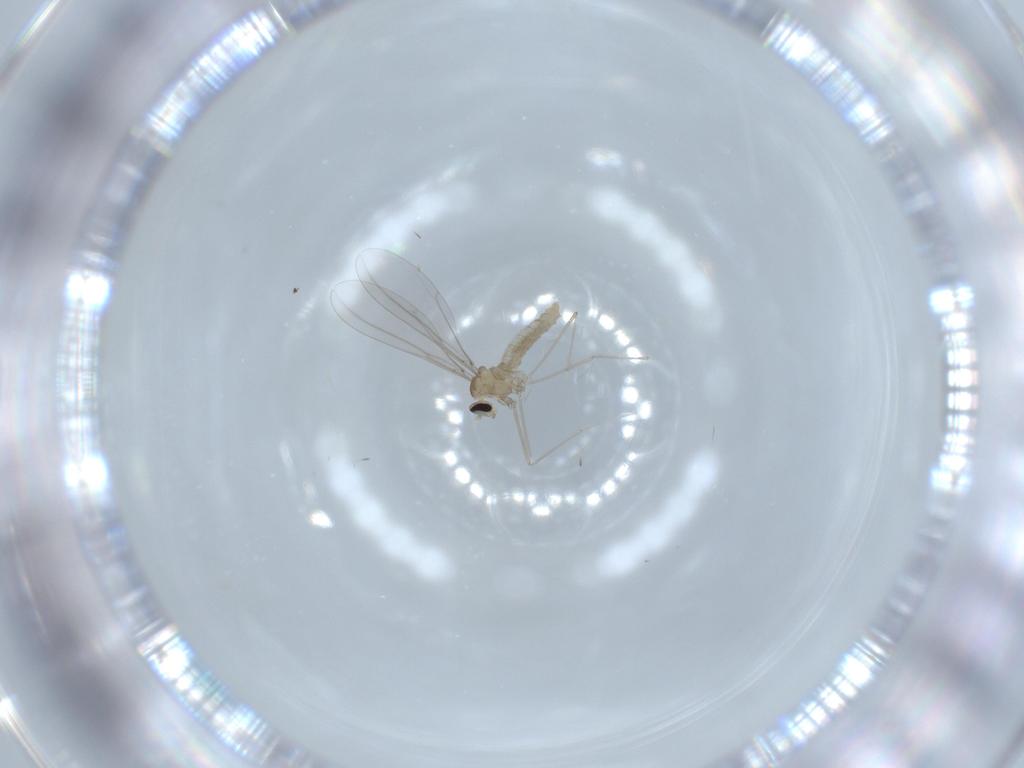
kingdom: Animalia
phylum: Arthropoda
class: Insecta
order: Diptera
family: Cecidomyiidae
